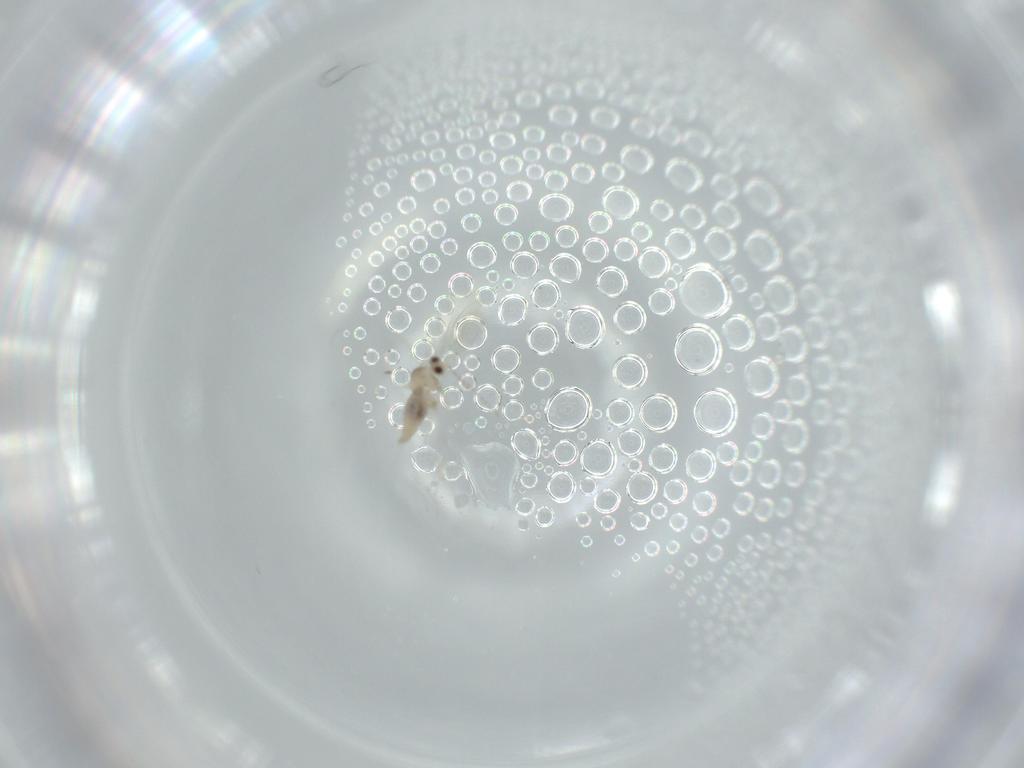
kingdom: Animalia
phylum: Arthropoda
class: Insecta
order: Diptera
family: Cecidomyiidae
